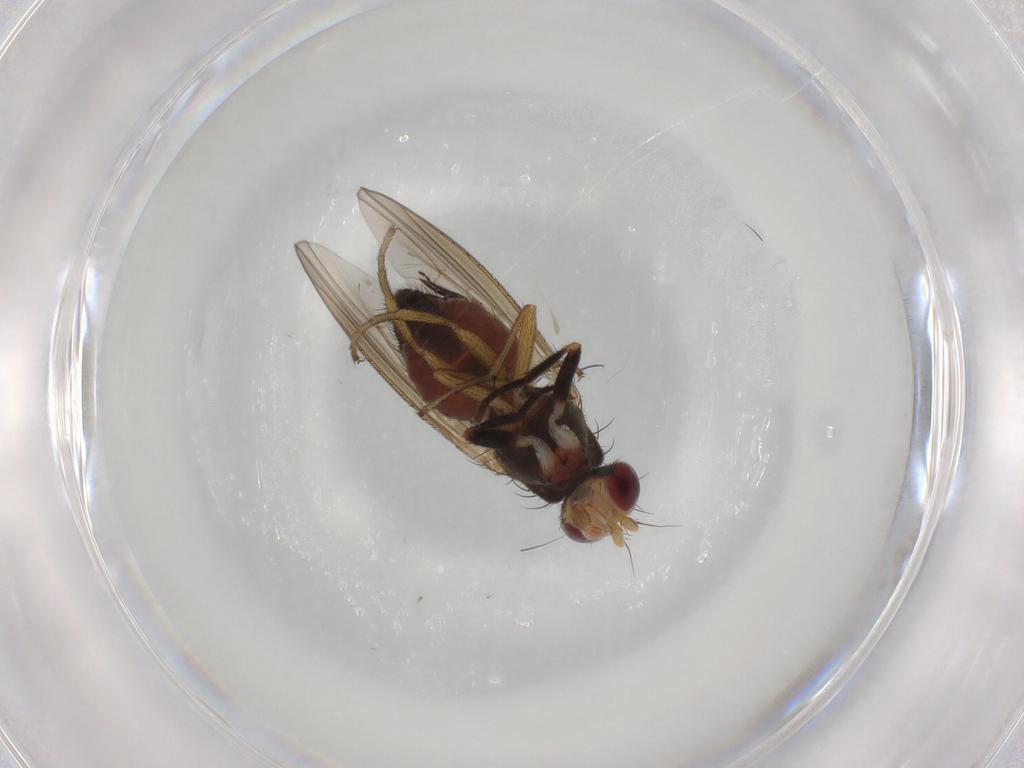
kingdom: Animalia
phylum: Arthropoda
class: Insecta
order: Diptera
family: Heleomyzidae
